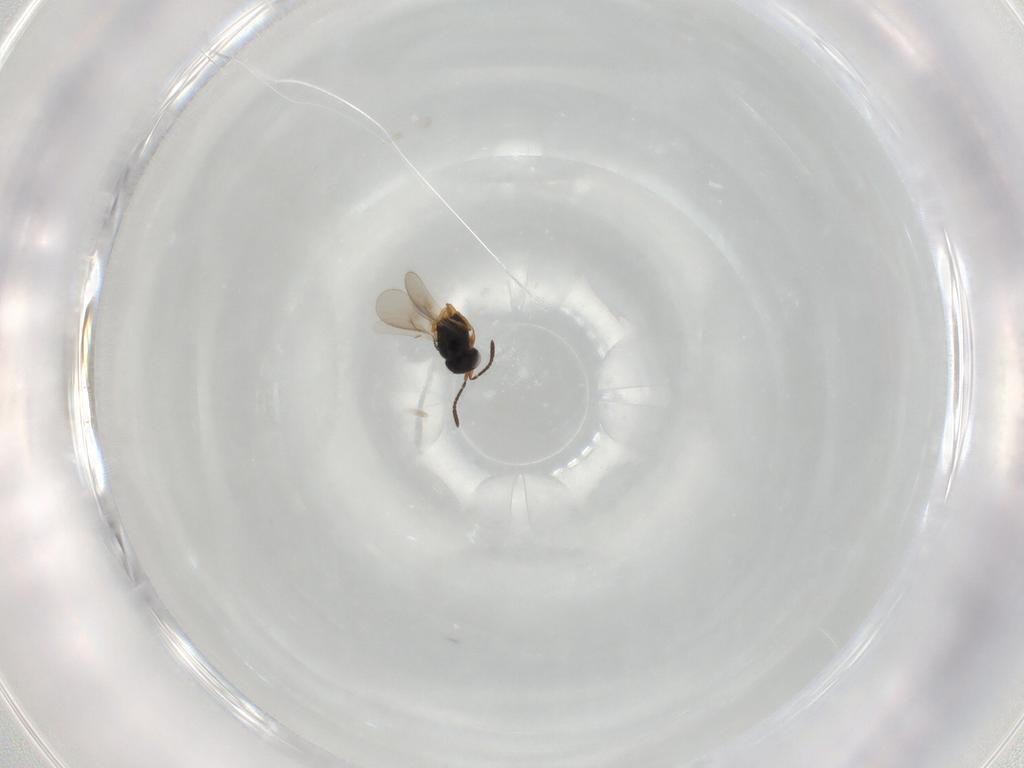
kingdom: Animalia
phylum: Arthropoda
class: Insecta
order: Hymenoptera
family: Scelionidae
